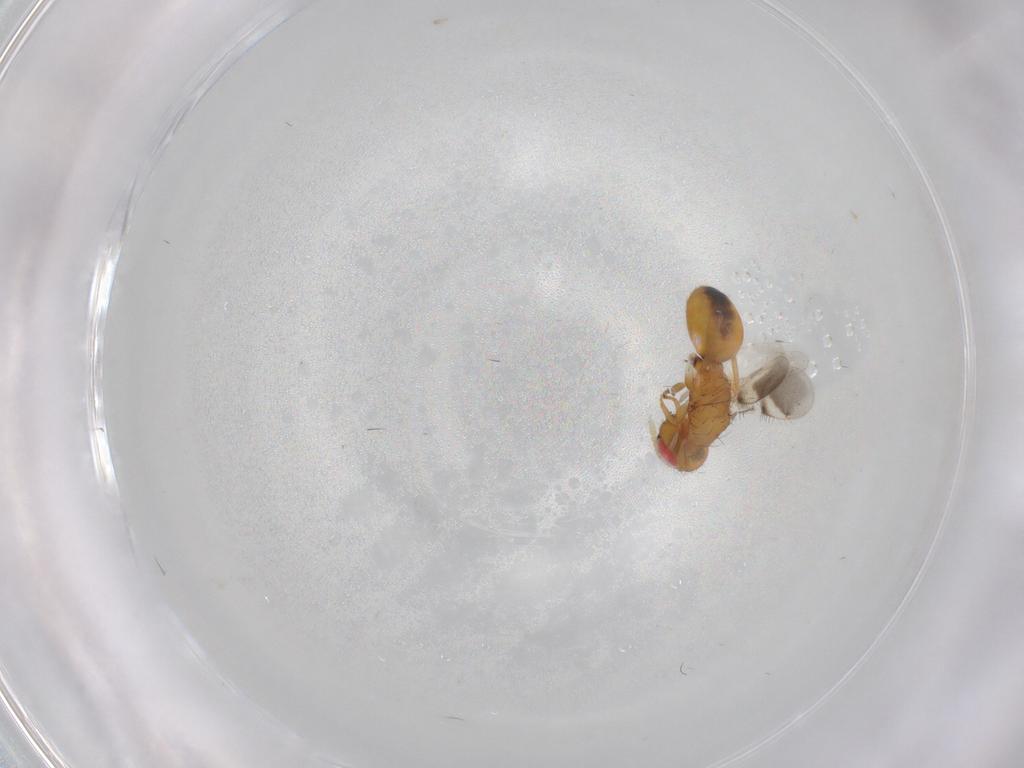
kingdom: Animalia
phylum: Arthropoda
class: Insecta
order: Hymenoptera
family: Eulophidae
